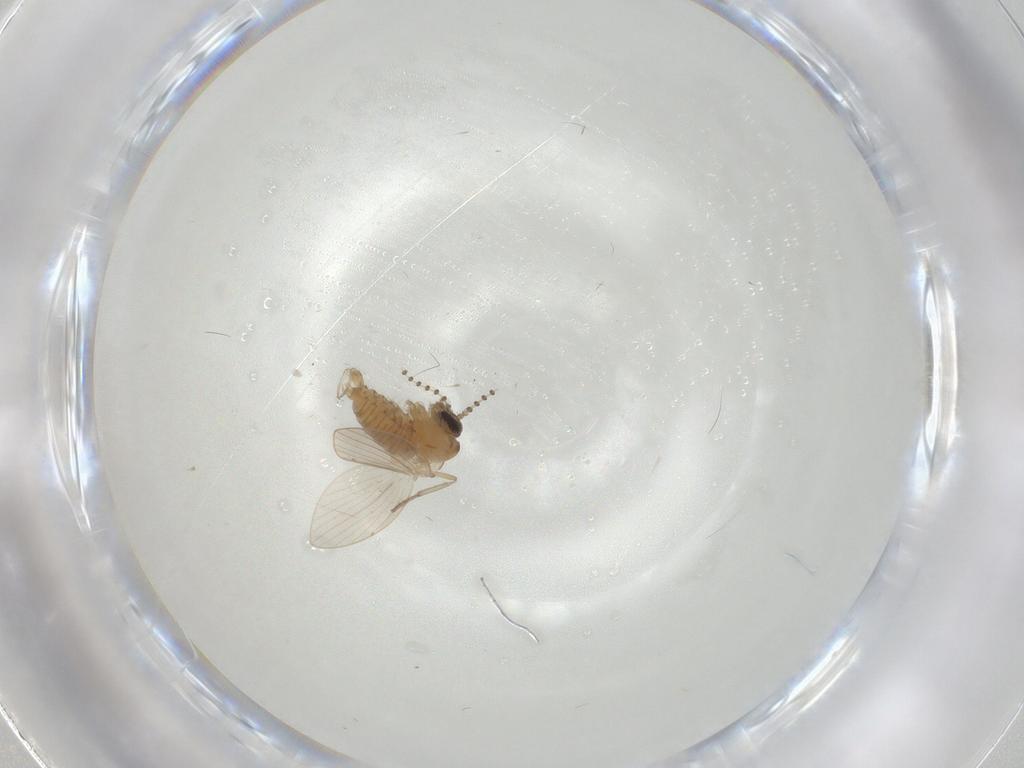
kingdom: Animalia
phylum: Arthropoda
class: Insecta
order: Diptera
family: Psychodidae
